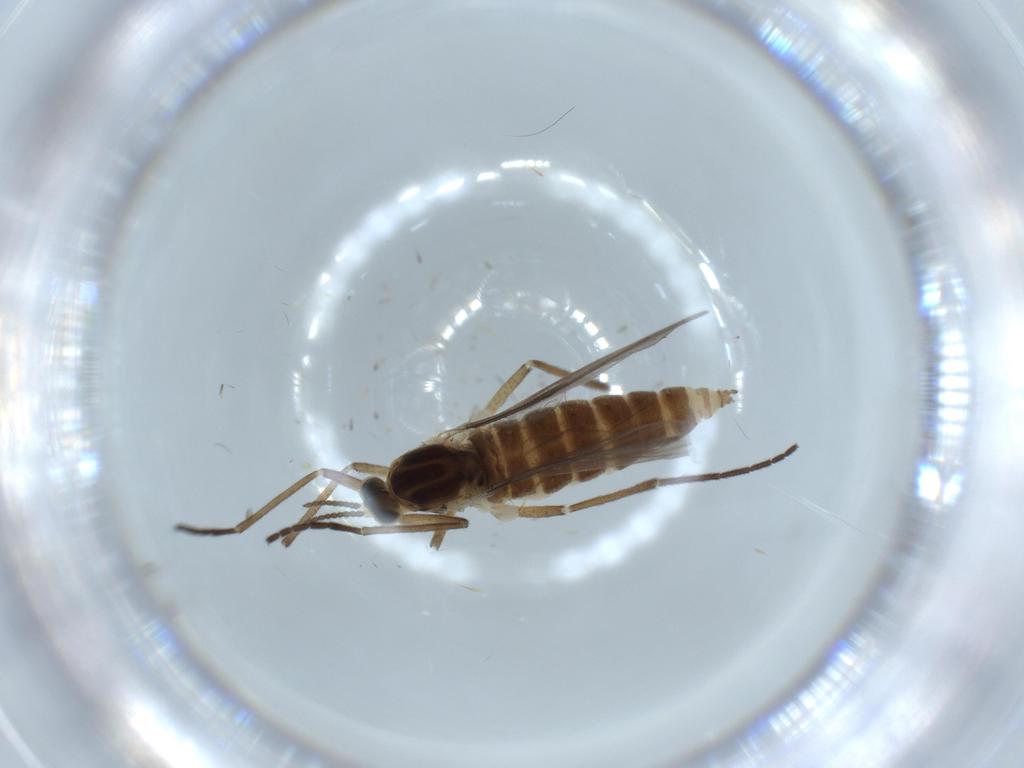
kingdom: Animalia
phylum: Arthropoda
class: Insecta
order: Diptera
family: Cecidomyiidae
